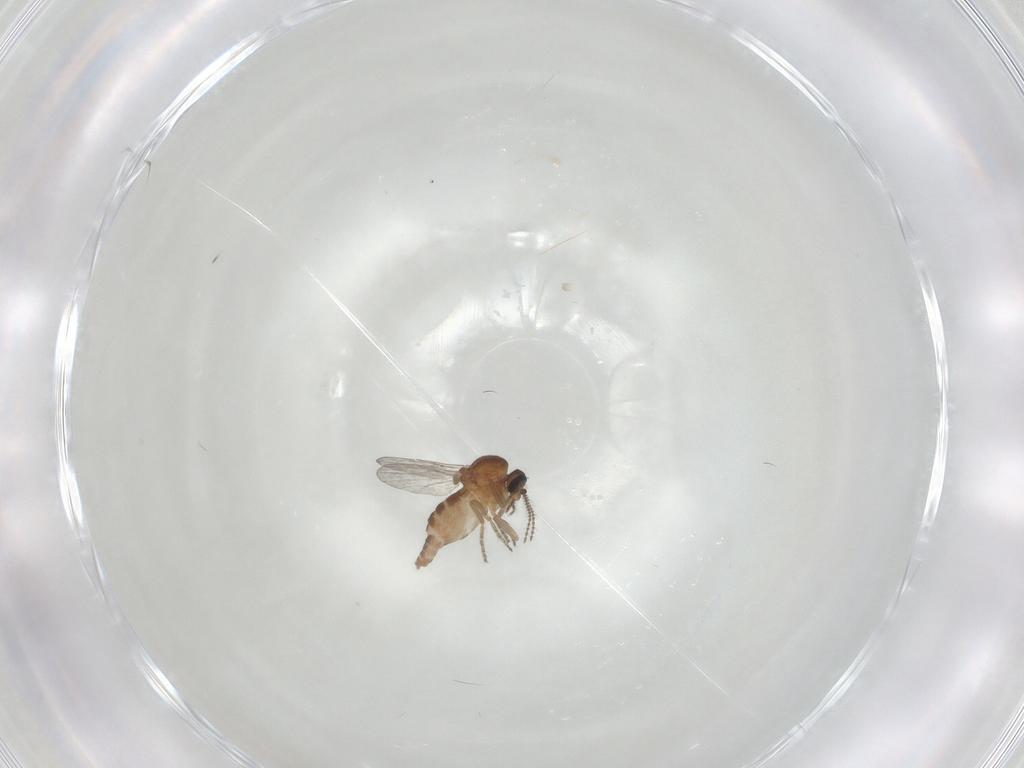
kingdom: Animalia
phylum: Arthropoda
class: Insecta
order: Diptera
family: Ceratopogonidae
